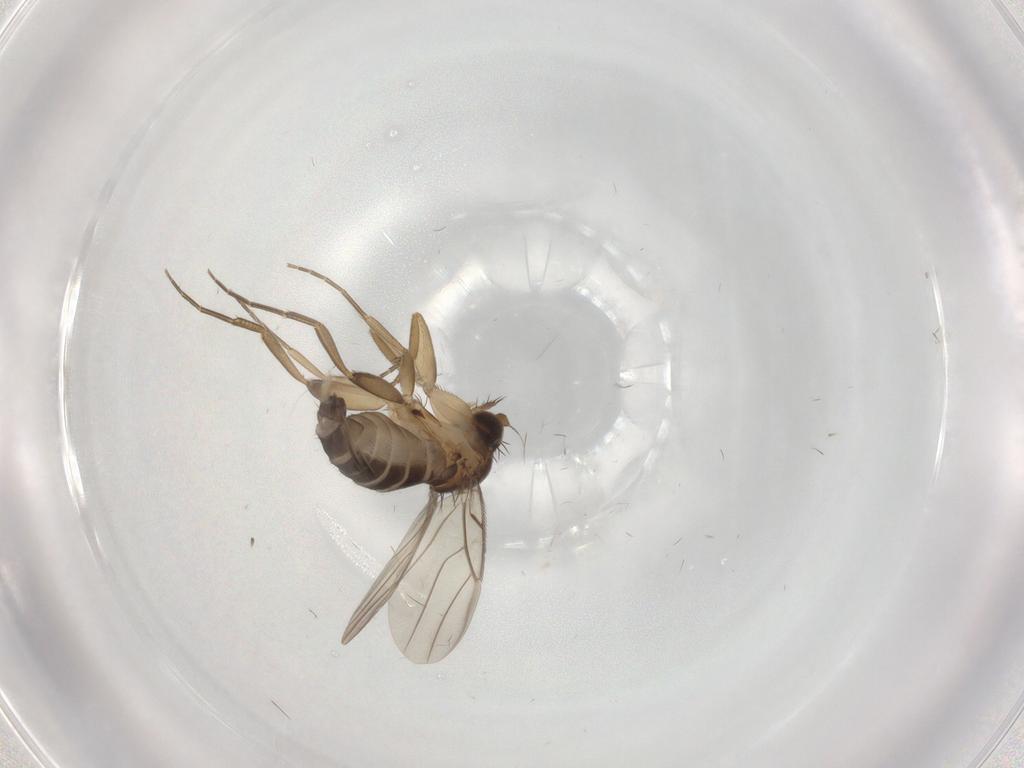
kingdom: Animalia
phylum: Arthropoda
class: Insecta
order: Diptera
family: Phoridae
